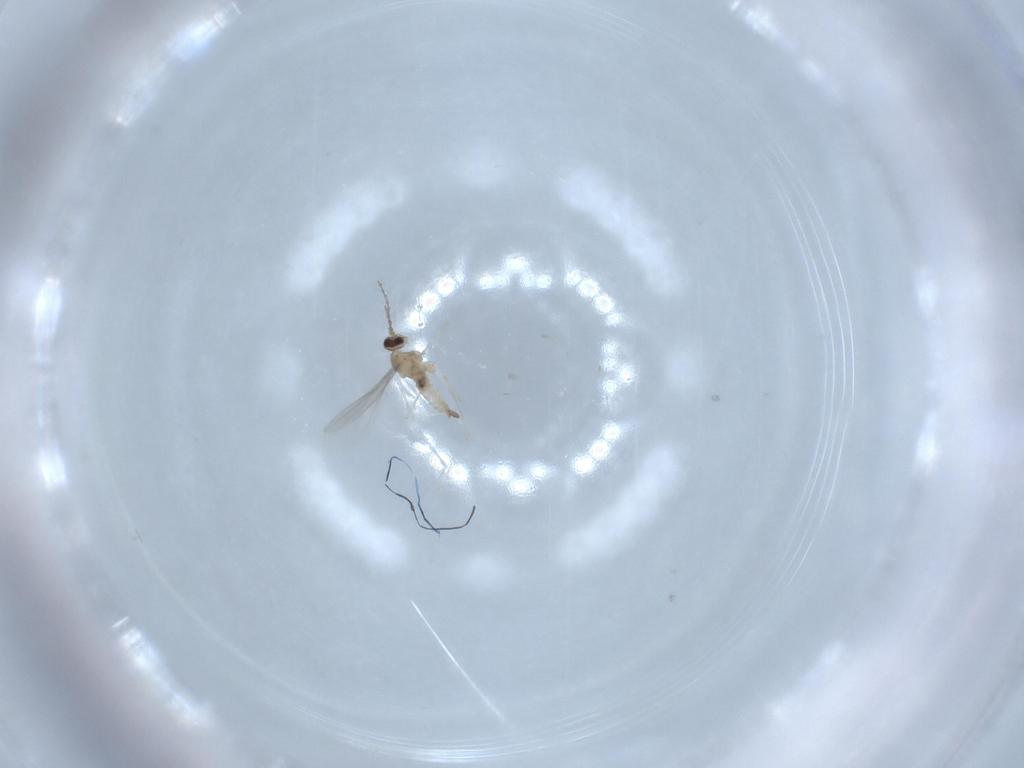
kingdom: Animalia
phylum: Arthropoda
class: Insecta
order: Diptera
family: Cecidomyiidae
